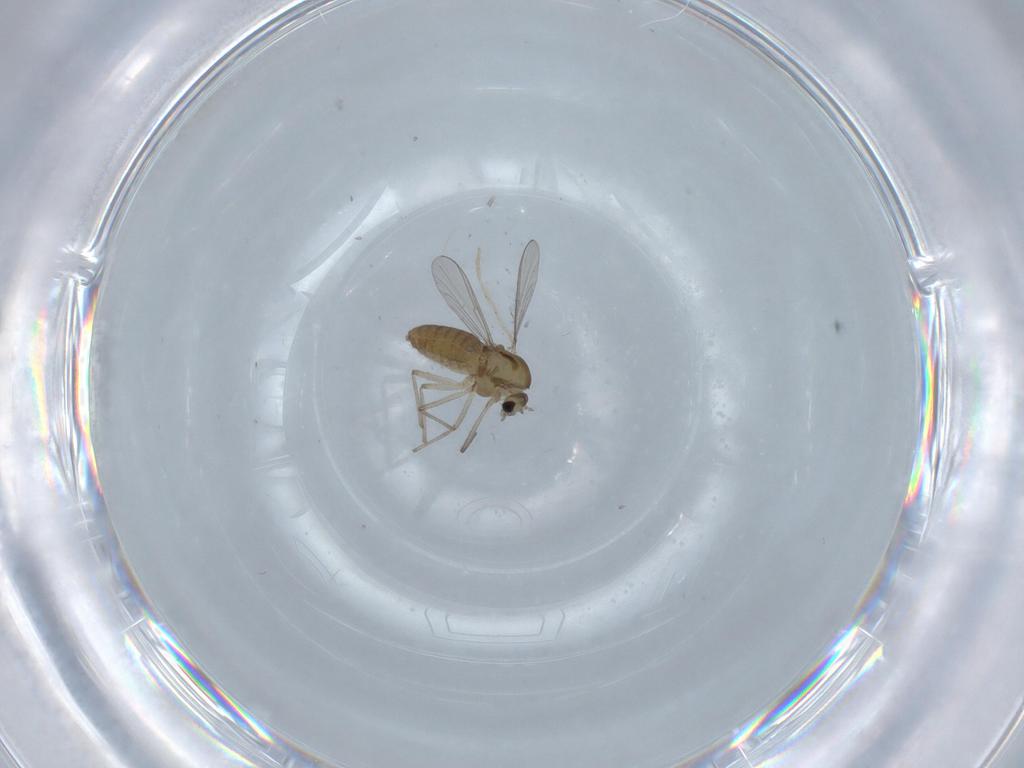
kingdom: Animalia
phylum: Arthropoda
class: Insecta
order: Diptera
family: Chironomidae
